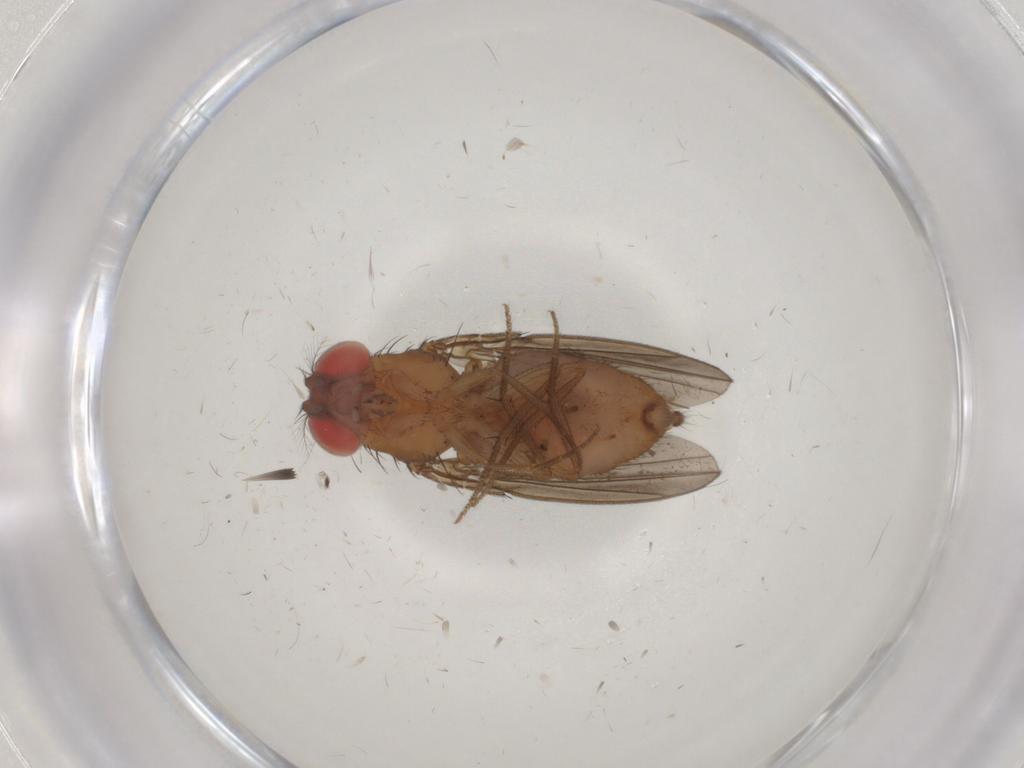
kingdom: Animalia
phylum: Arthropoda
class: Insecta
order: Diptera
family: Drosophilidae
